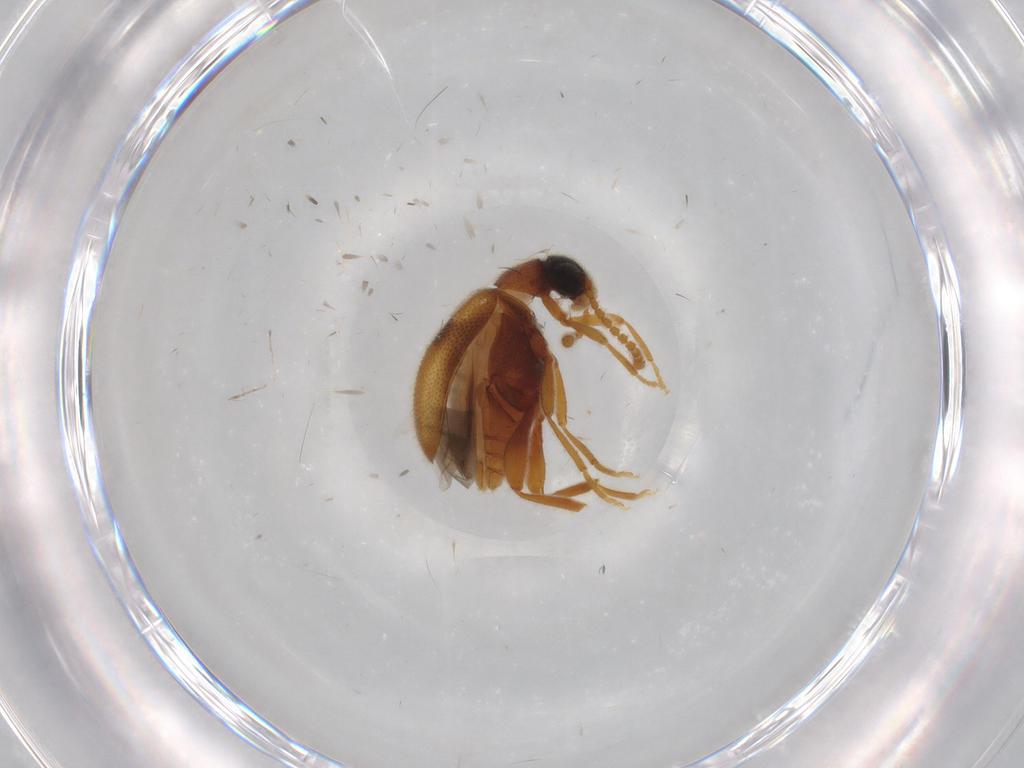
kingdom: Animalia
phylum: Arthropoda
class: Insecta
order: Coleoptera
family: Aderidae
